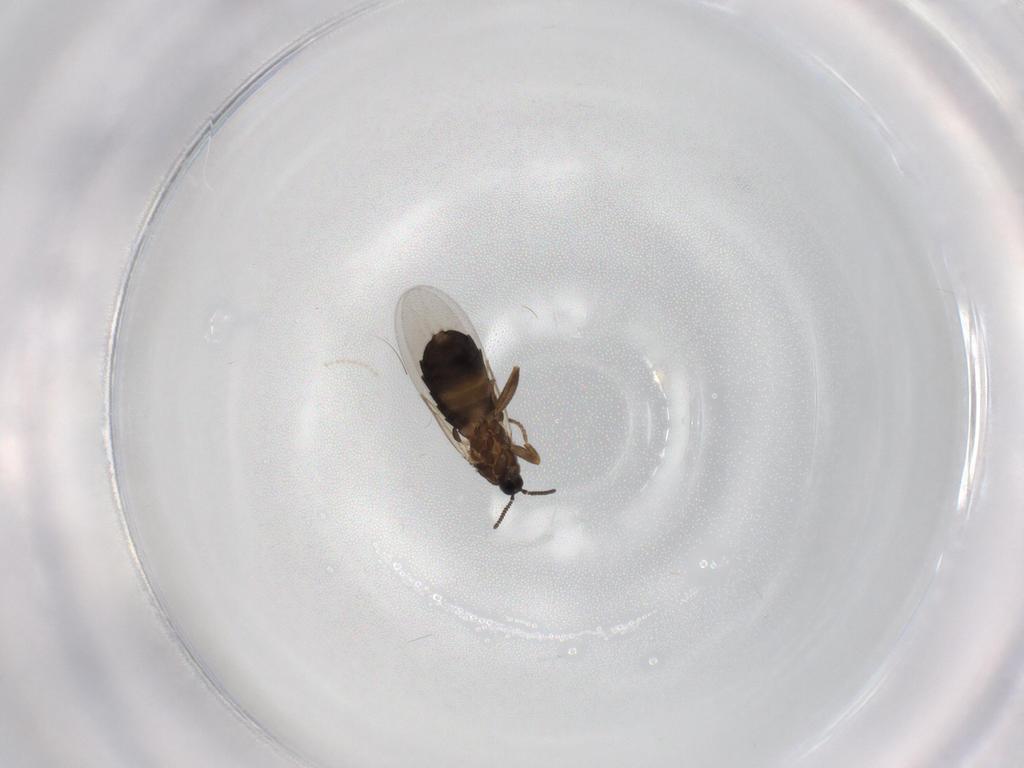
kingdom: Animalia
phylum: Arthropoda
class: Insecta
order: Diptera
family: Scatopsidae
